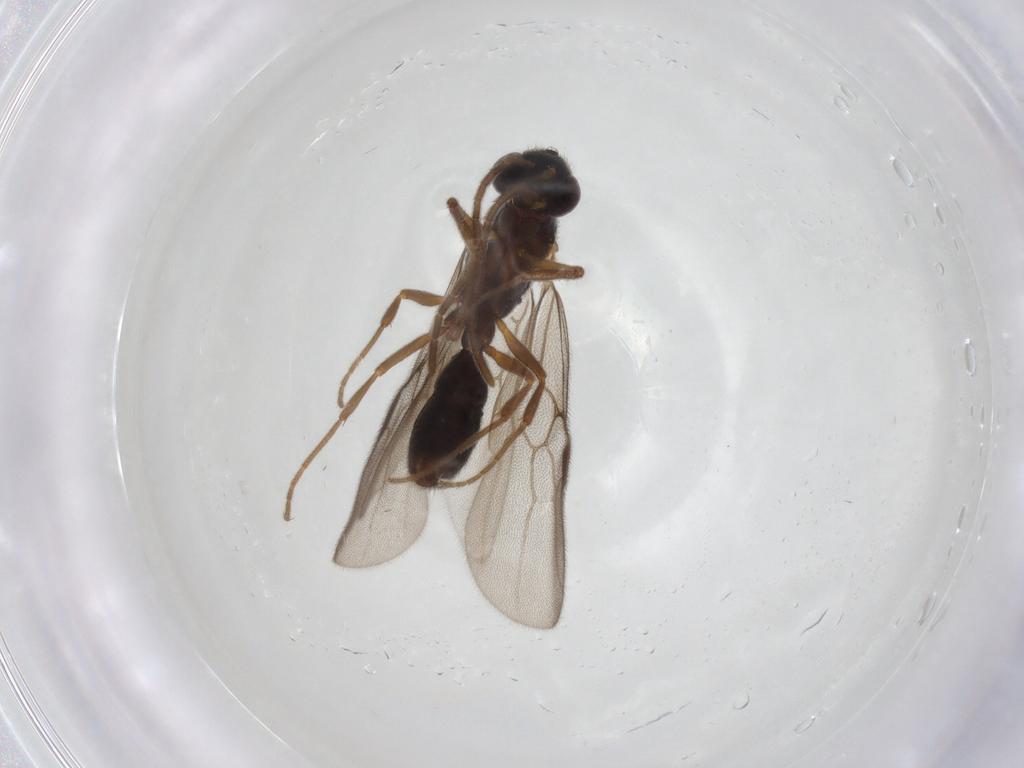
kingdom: Animalia
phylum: Arthropoda
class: Insecta
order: Hymenoptera
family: Formicidae
